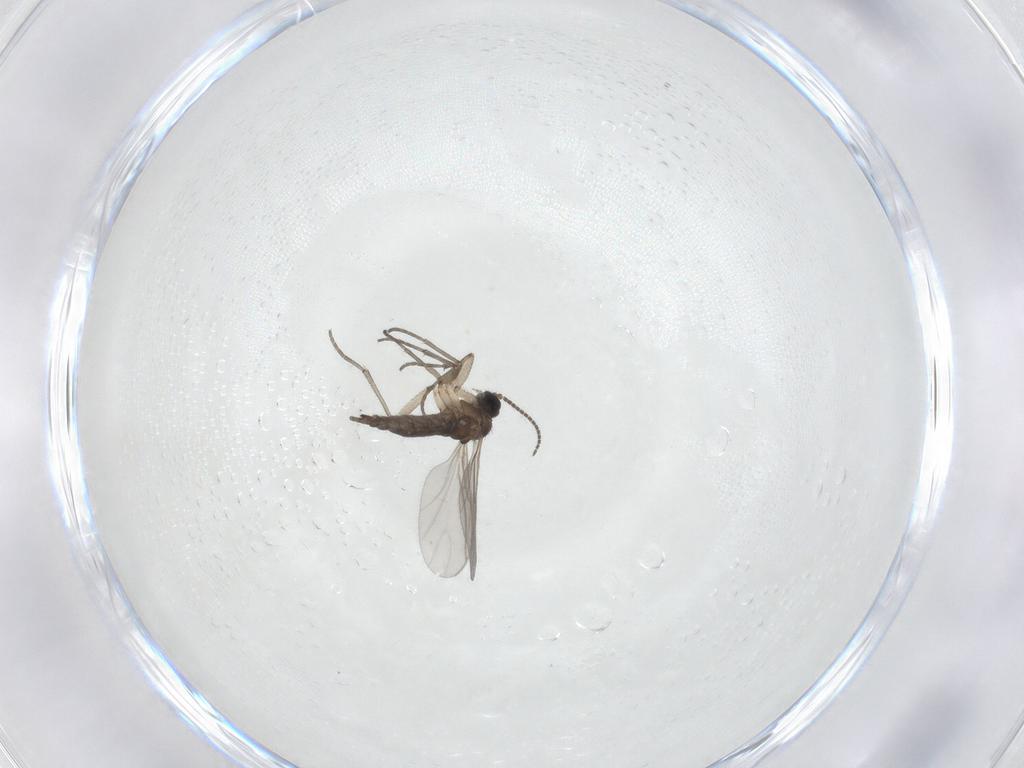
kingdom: Animalia
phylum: Arthropoda
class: Insecta
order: Diptera
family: Sciaridae
